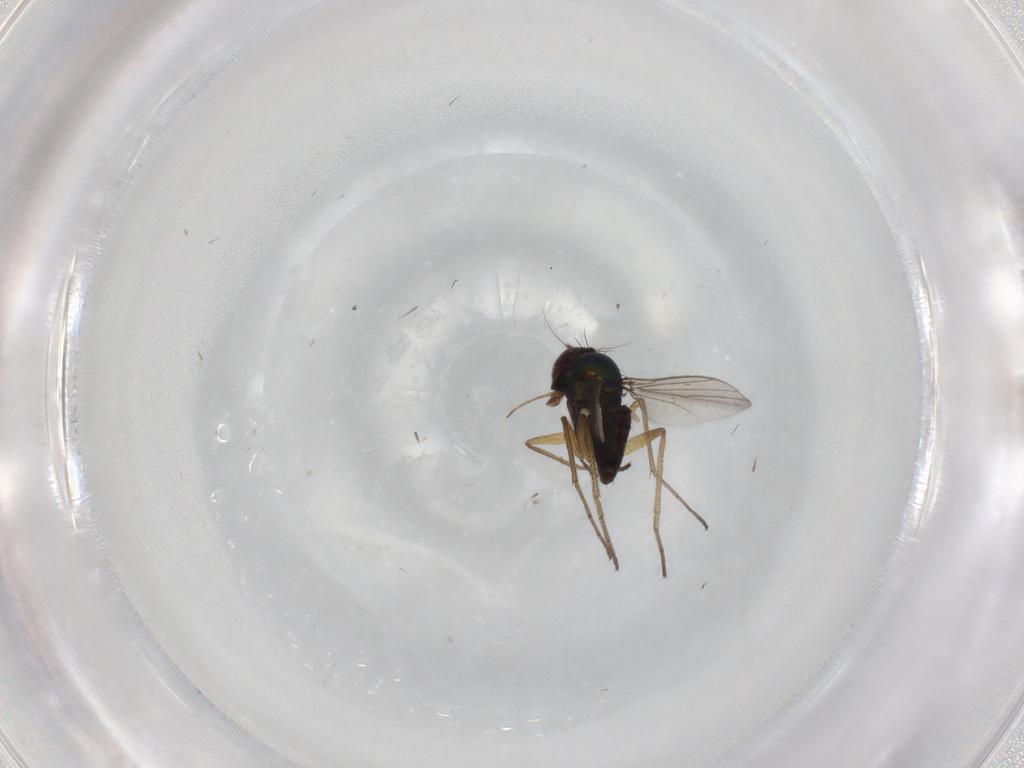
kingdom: Animalia
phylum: Arthropoda
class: Insecta
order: Diptera
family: Dolichopodidae
